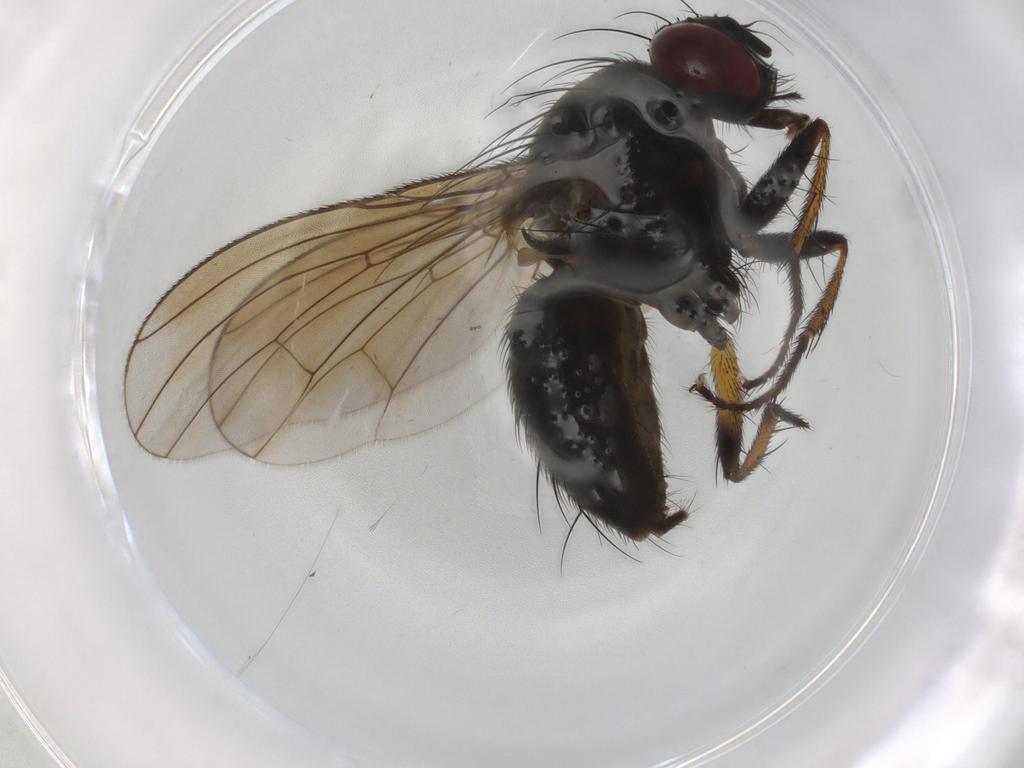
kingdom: Animalia
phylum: Arthropoda
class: Insecta
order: Diptera
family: Muscidae
